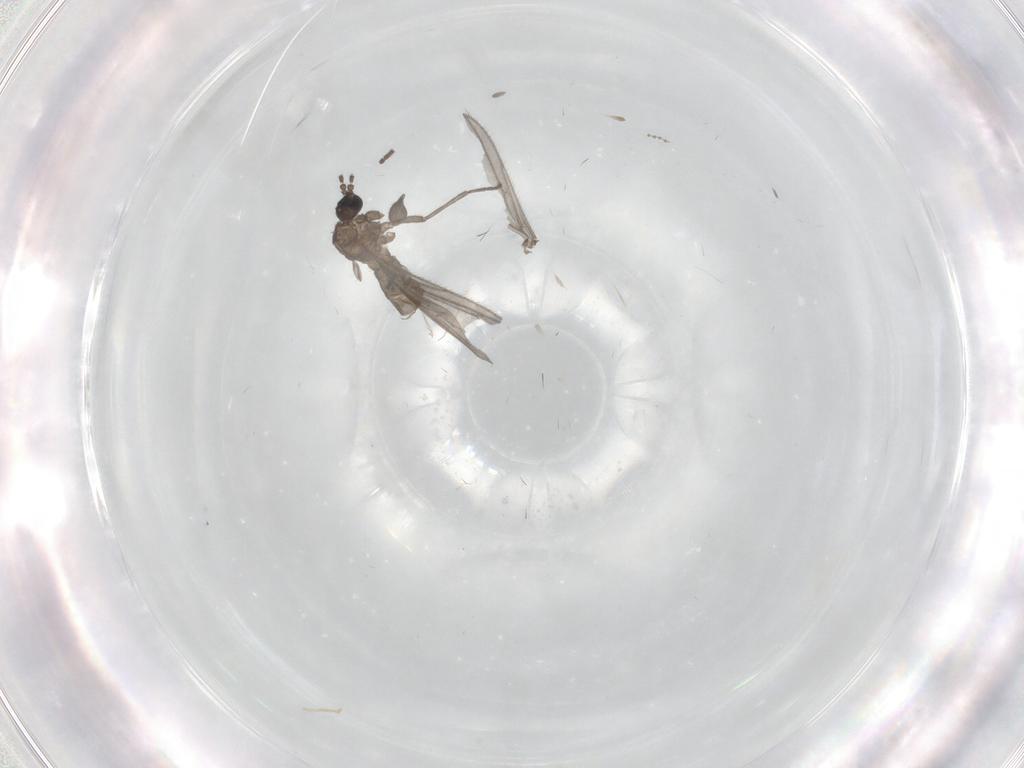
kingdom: Animalia
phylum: Arthropoda
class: Insecta
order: Diptera
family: Sciaridae
